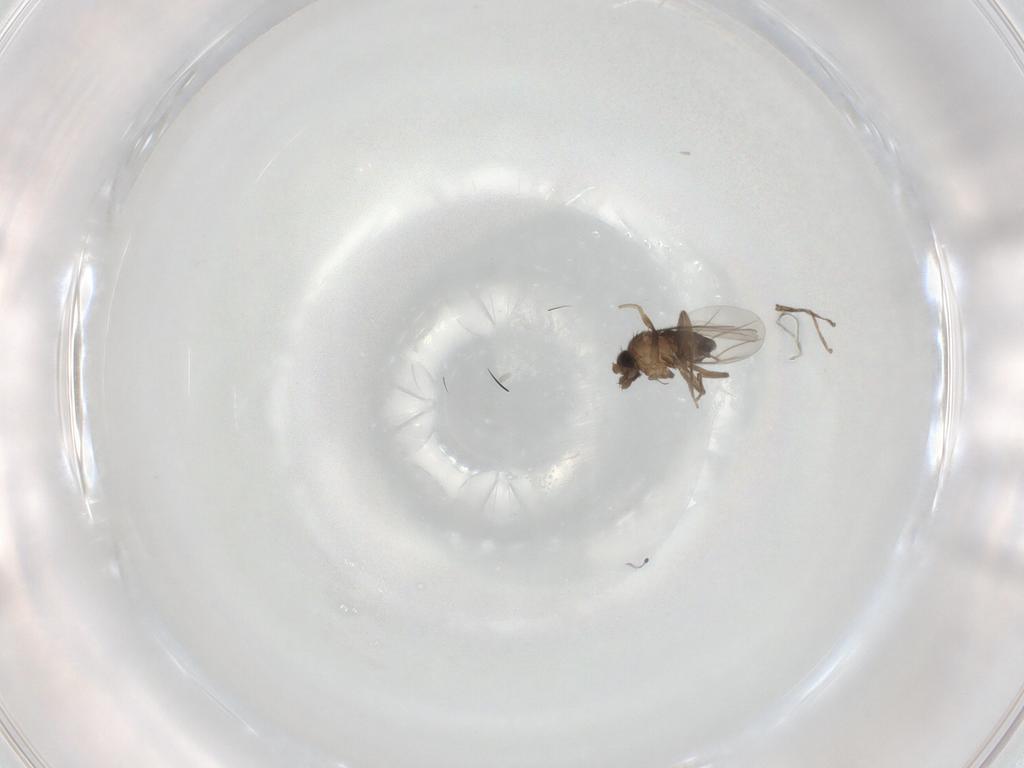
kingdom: Animalia
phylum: Arthropoda
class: Insecta
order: Diptera
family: Phoridae
